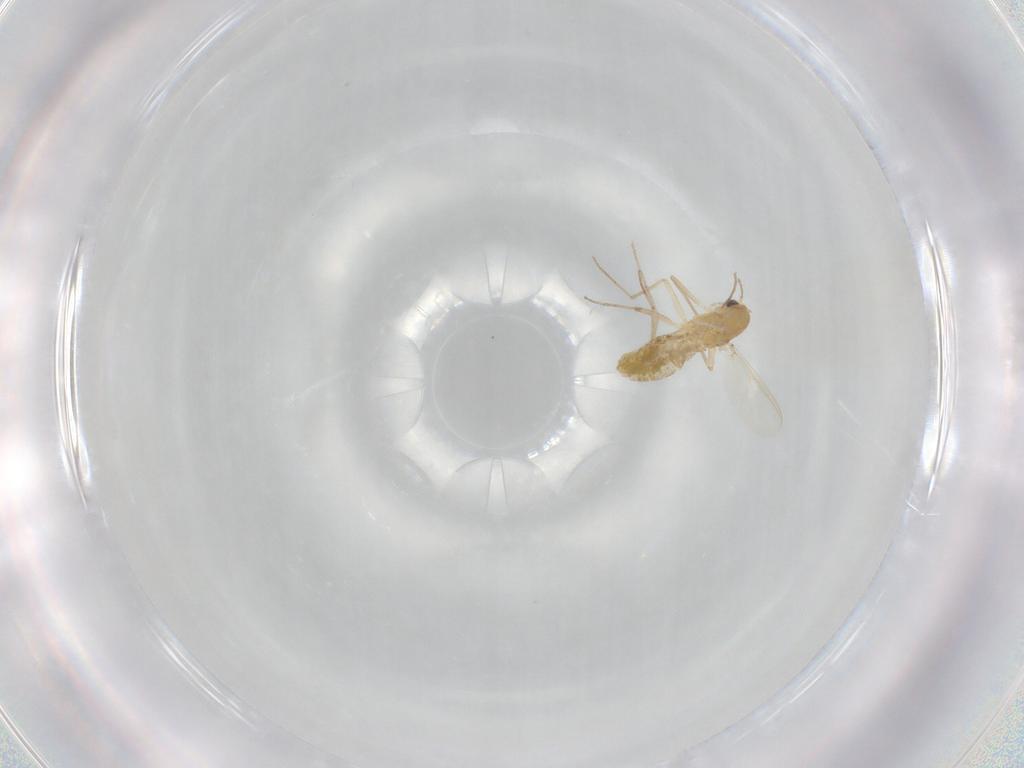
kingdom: Animalia
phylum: Arthropoda
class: Insecta
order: Diptera
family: Chironomidae
